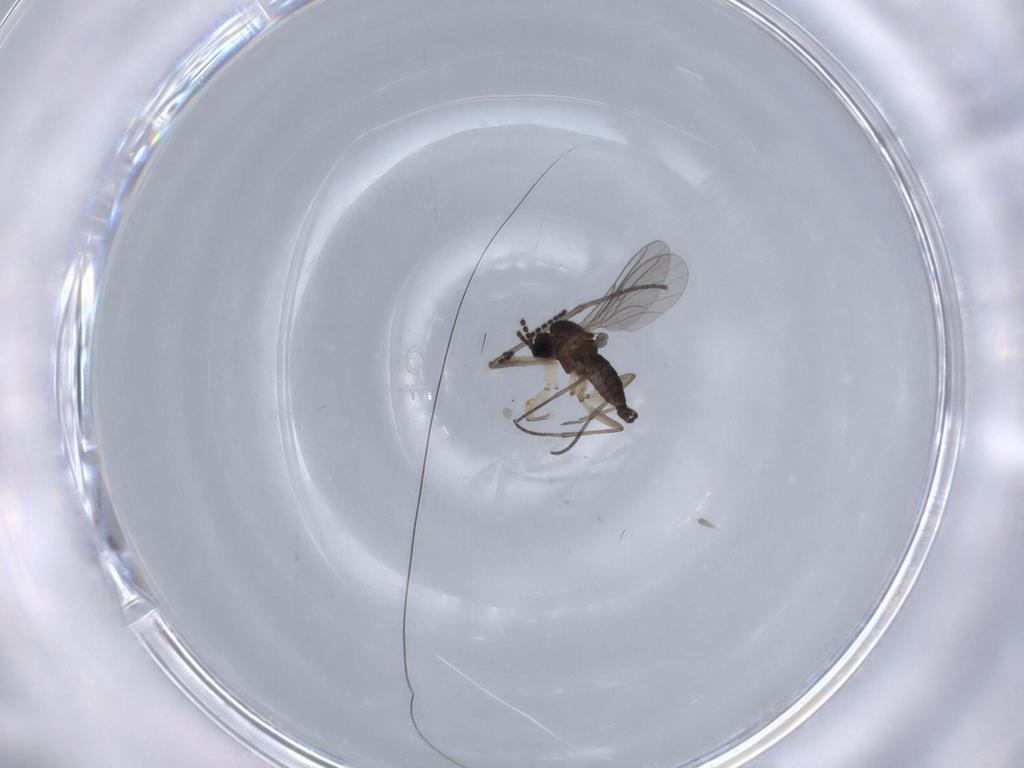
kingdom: Animalia
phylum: Arthropoda
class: Insecta
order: Diptera
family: Sciaridae
